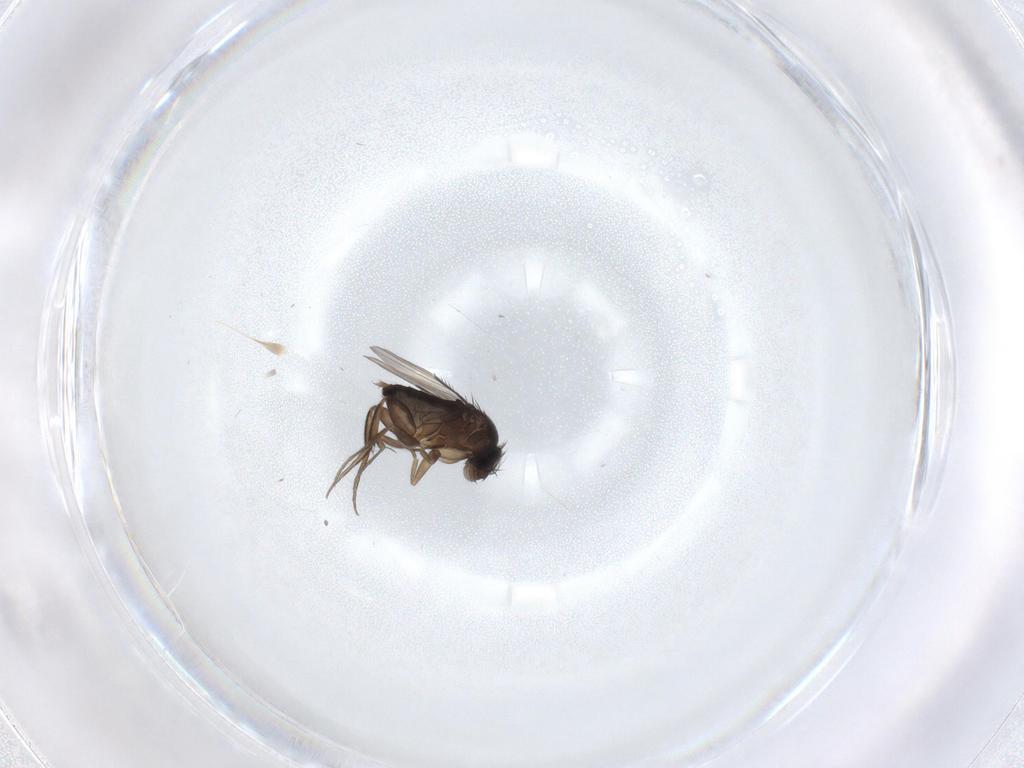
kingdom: Animalia
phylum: Arthropoda
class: Insecta
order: Diptera
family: Phoridae
